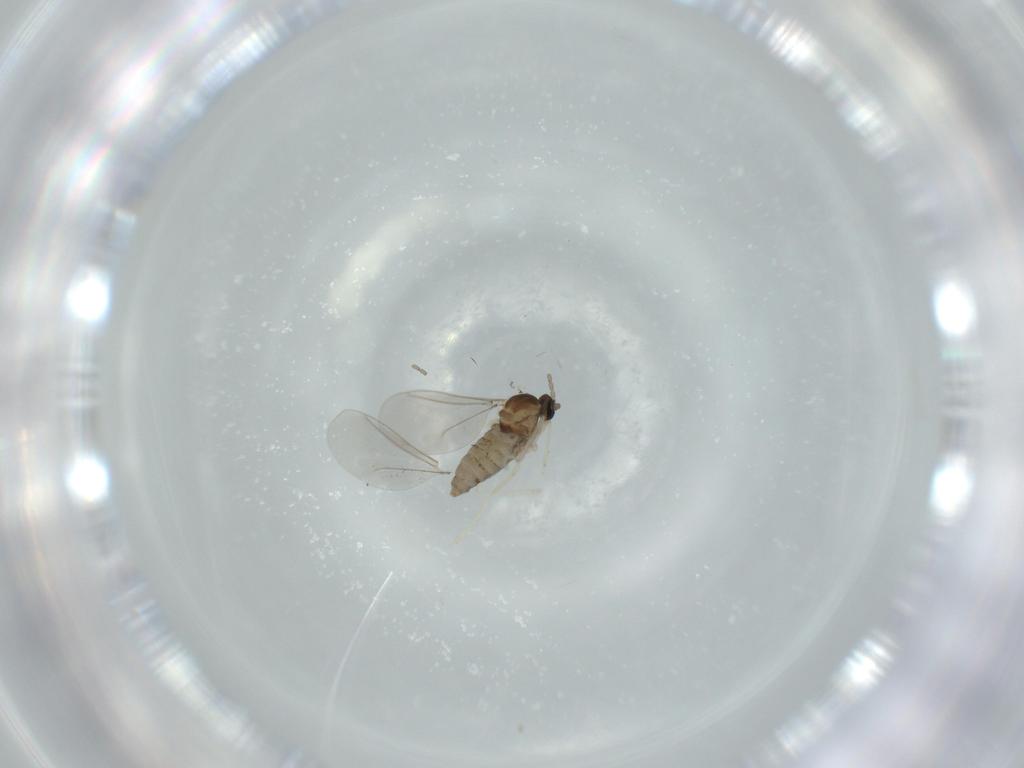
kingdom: Animalia
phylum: Arthropoda
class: Insecta
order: Diptera
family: Cecidomyiidae
